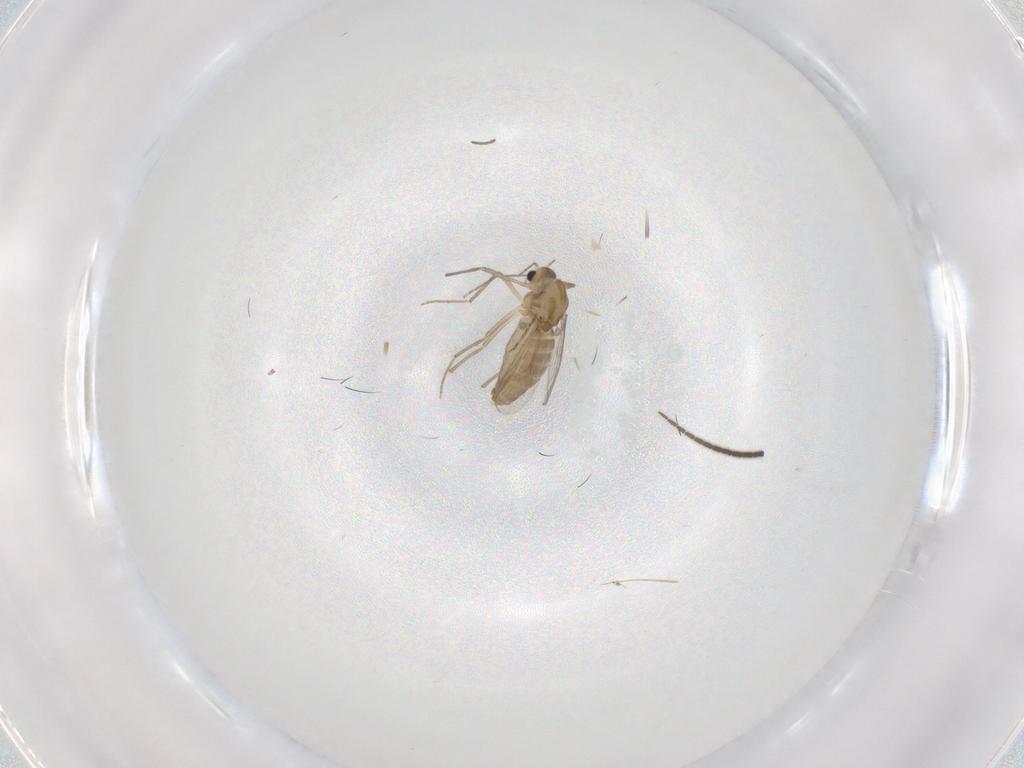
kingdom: Animalia
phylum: Arthropoda
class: Insecta
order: Diptera
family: Chironomidae
